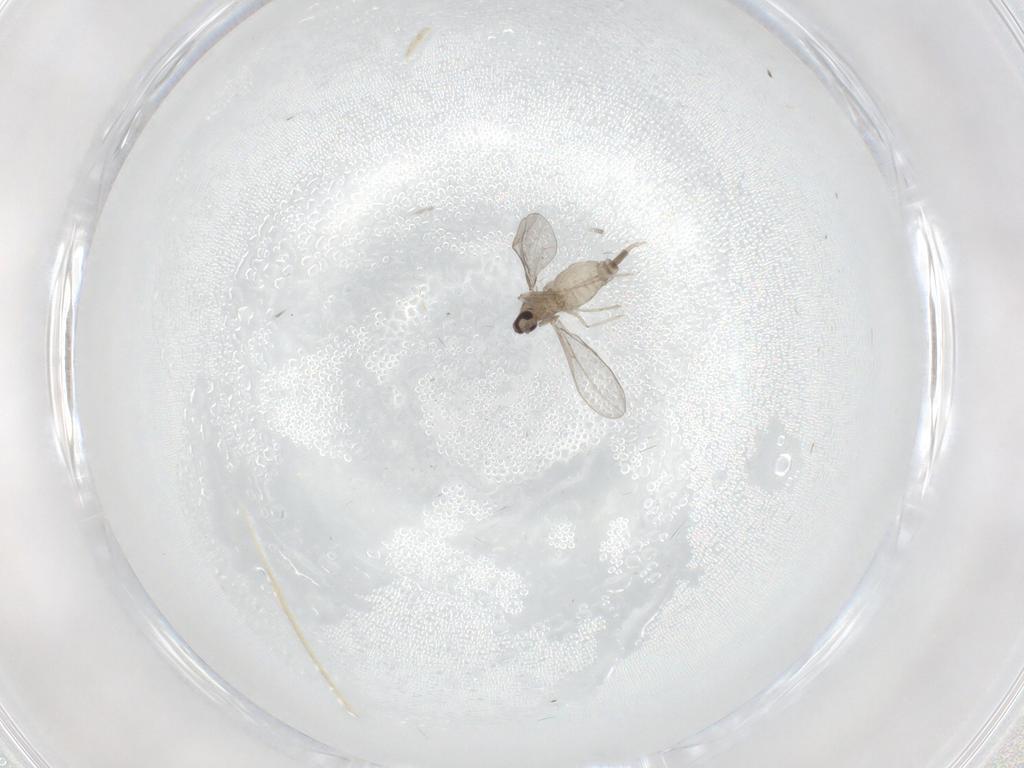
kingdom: Animalia
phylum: Arthropoda
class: Insecta
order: Diptera
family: Cecidomyiidae
